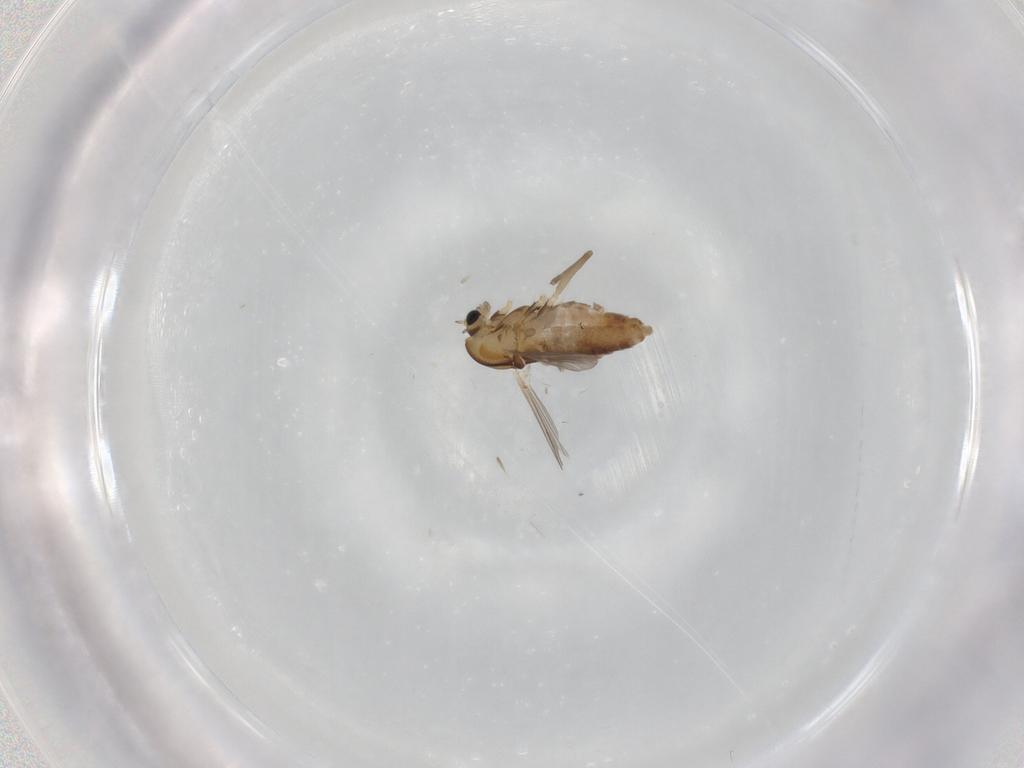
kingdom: Animalia
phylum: Arthropoda
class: Insecta
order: Diptera
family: Chironomidae
